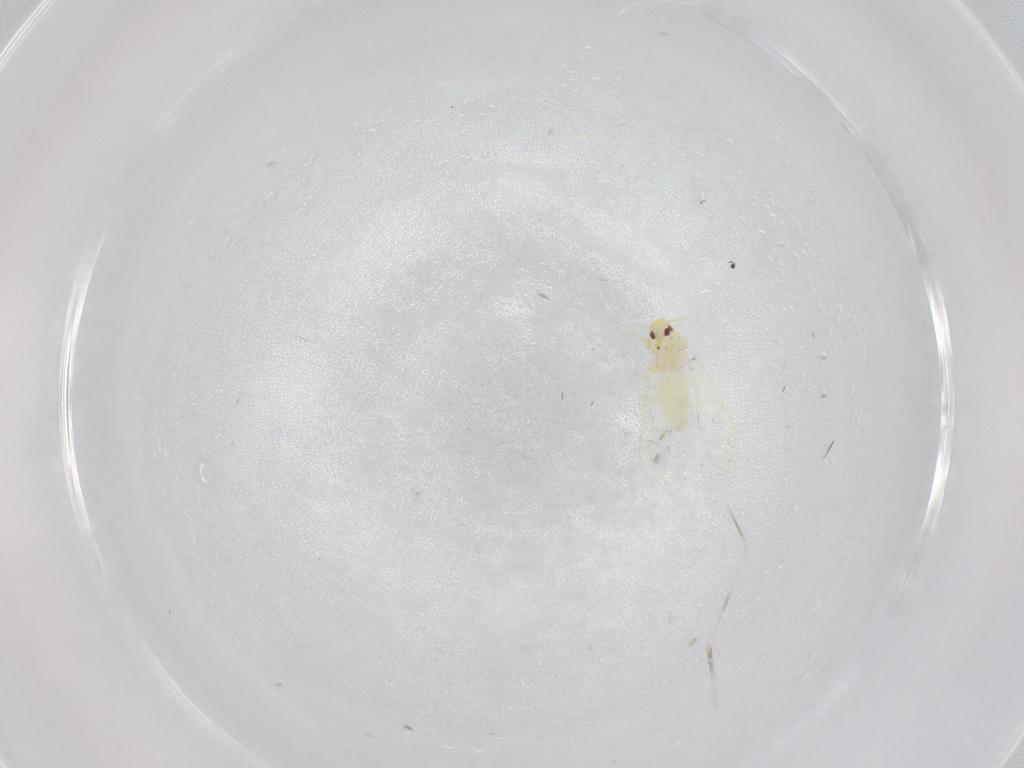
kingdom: Animalia
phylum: Arthropoda
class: Insecta
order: Hemiptera
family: Aleyrodidae
